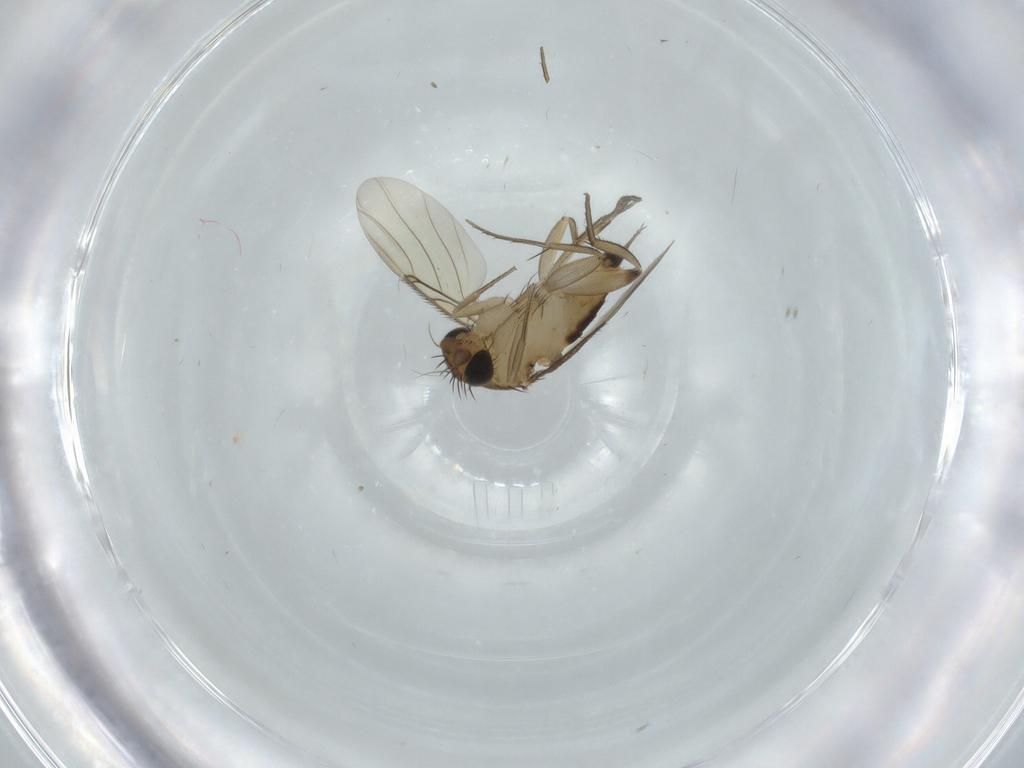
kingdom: Animalia
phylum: Arthropoda
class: Insecta
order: Diptera
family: Phoridae
